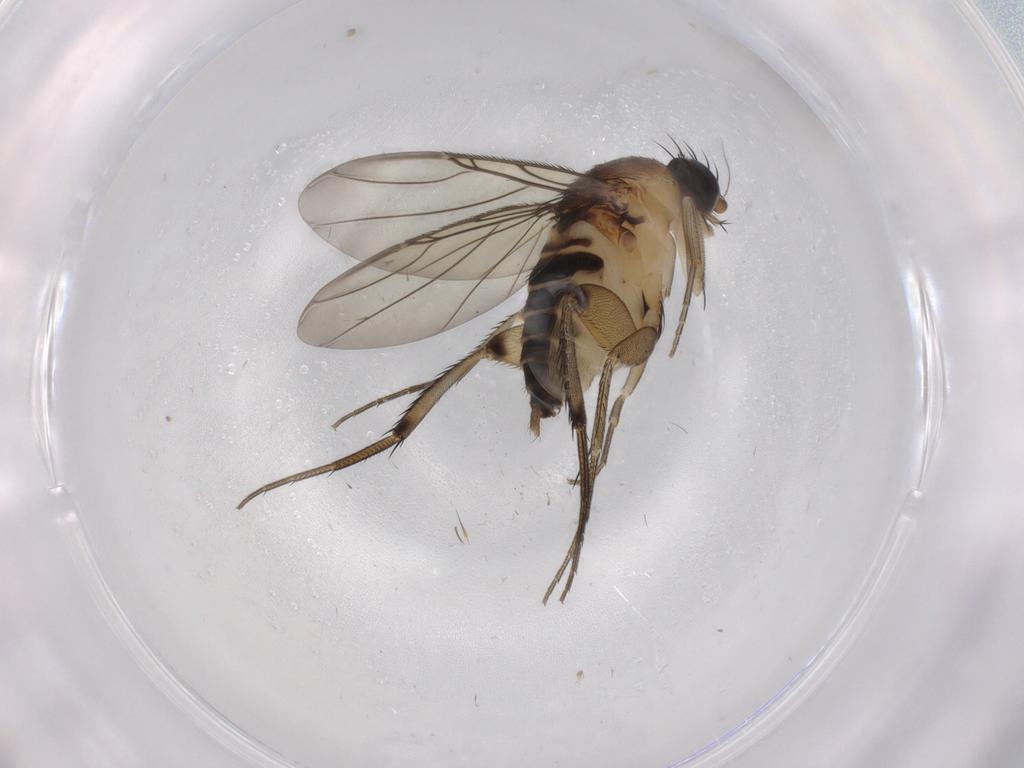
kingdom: Animalia
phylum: Arthropoda
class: Insecta
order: Diptera
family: Phoridae
